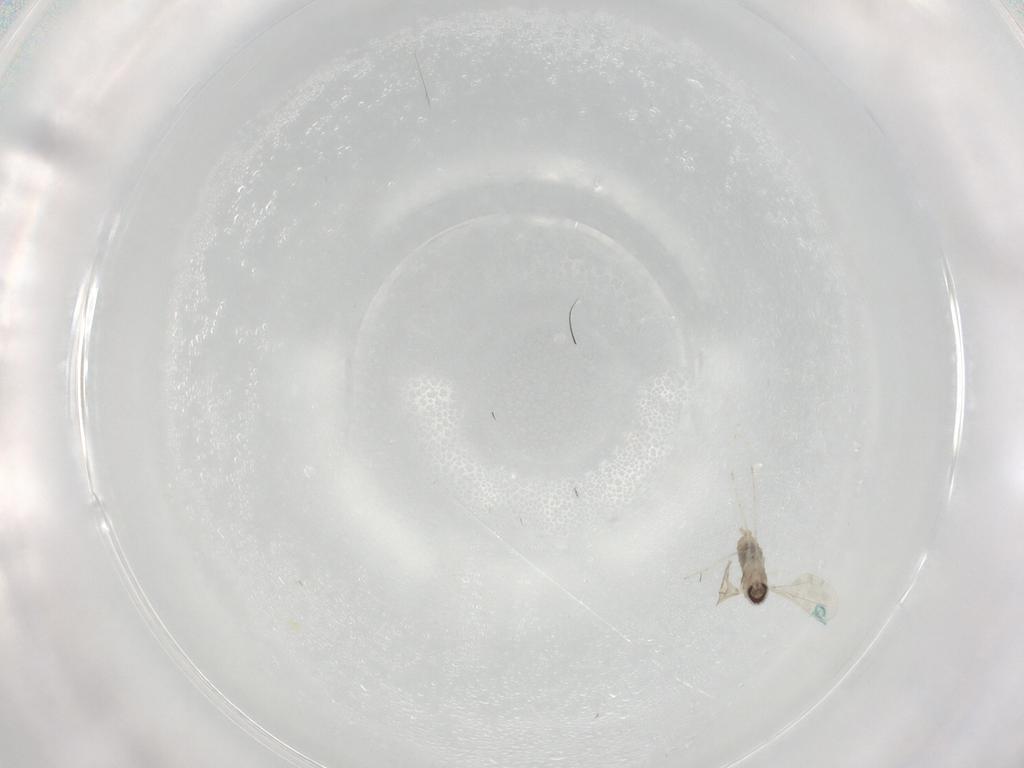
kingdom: Animalia
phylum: Arthropoda
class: Insecta
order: Diptera
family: Cecidomyiidae
